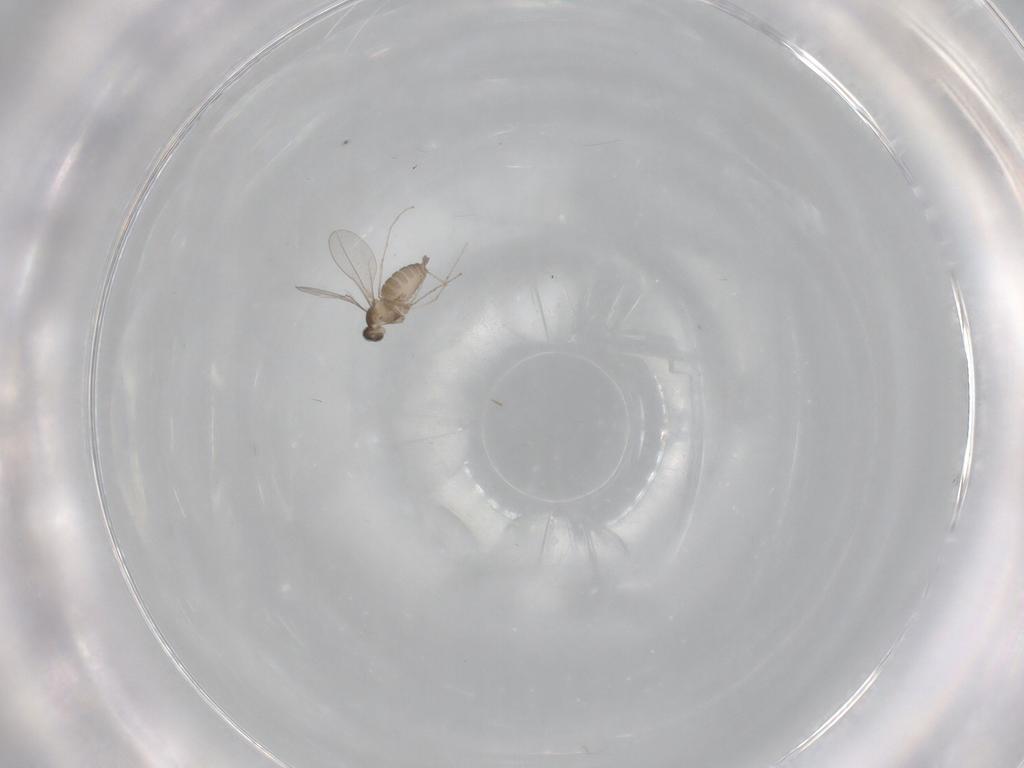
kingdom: Animalia
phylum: Arthropoda
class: Insecta
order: Diptera
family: Cecidomyiidae
